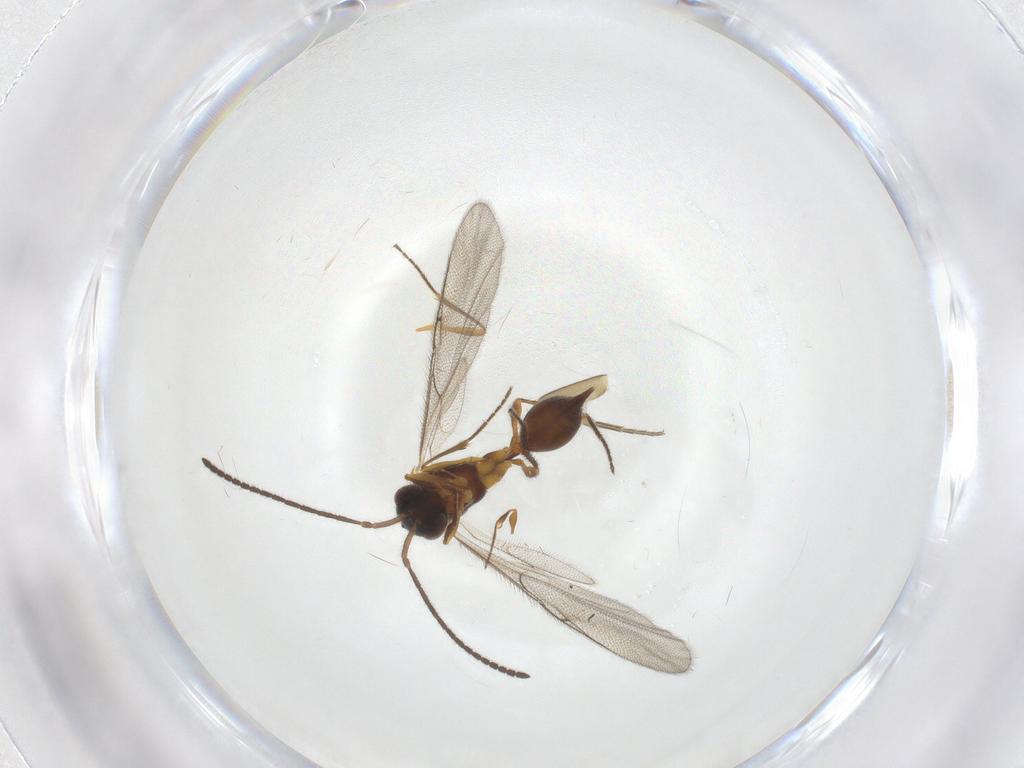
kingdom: Animalia
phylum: Arthropoda
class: Insecta
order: Hymenoptera
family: Diapriidae
